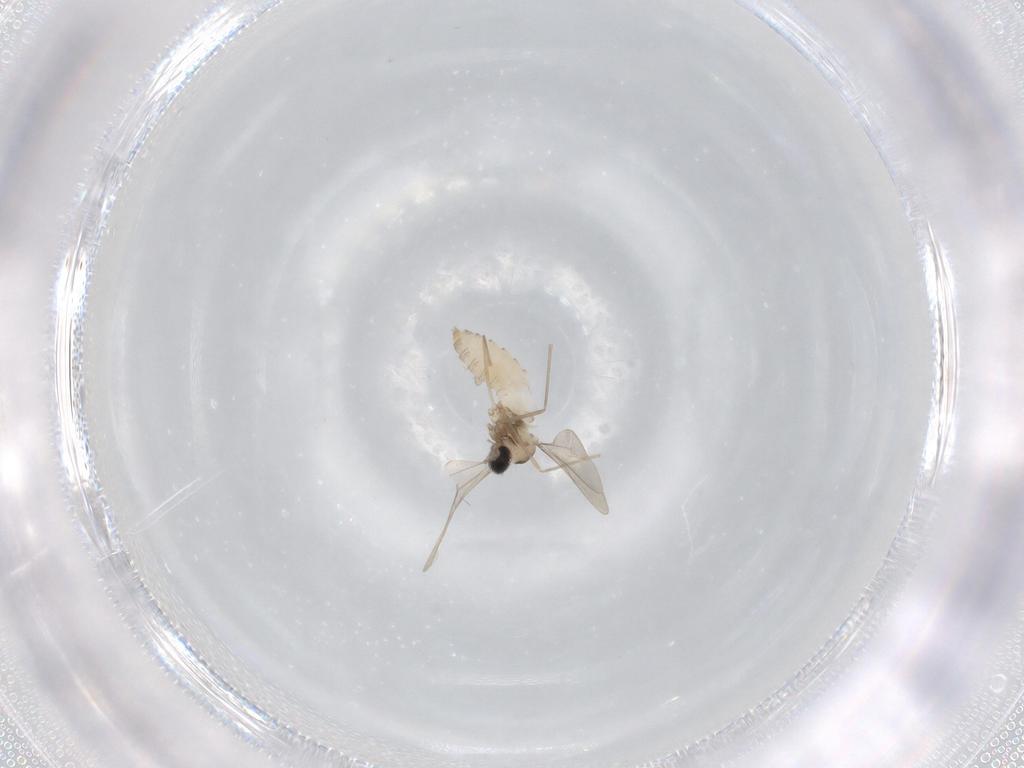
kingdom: Animalia
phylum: Arthropoda
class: Insecta
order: Diptera
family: Cecidomyiidae
